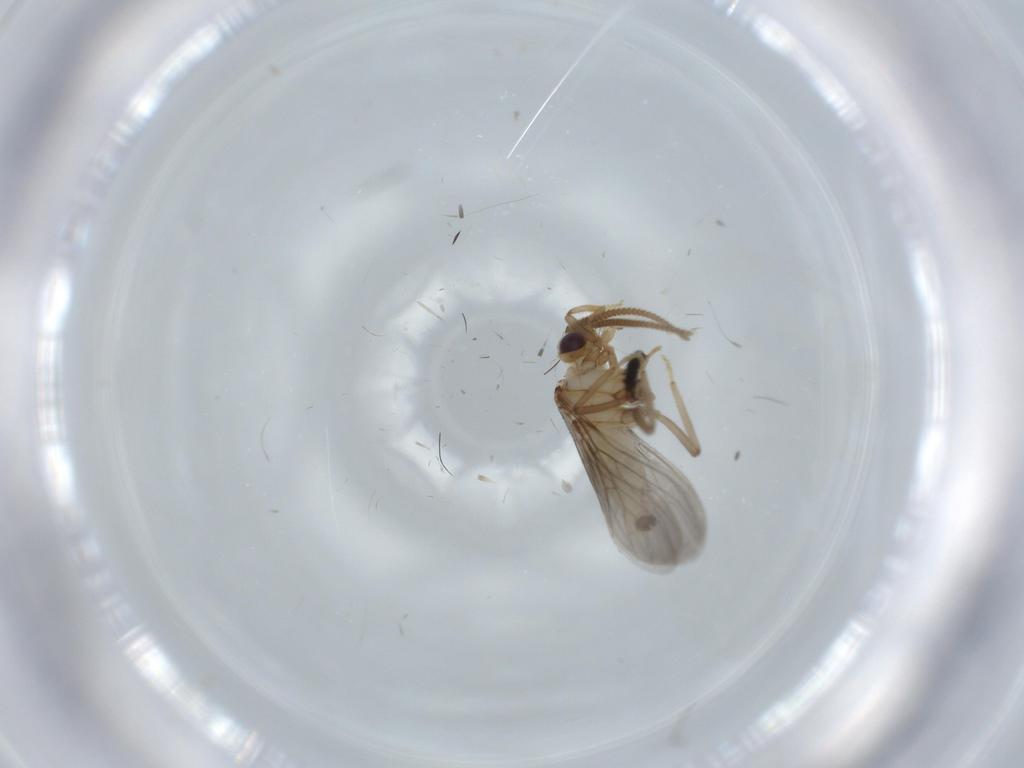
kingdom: Animalia
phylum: Arthropoda
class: Insecta
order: Neuroptera
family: Coniopterygidae
